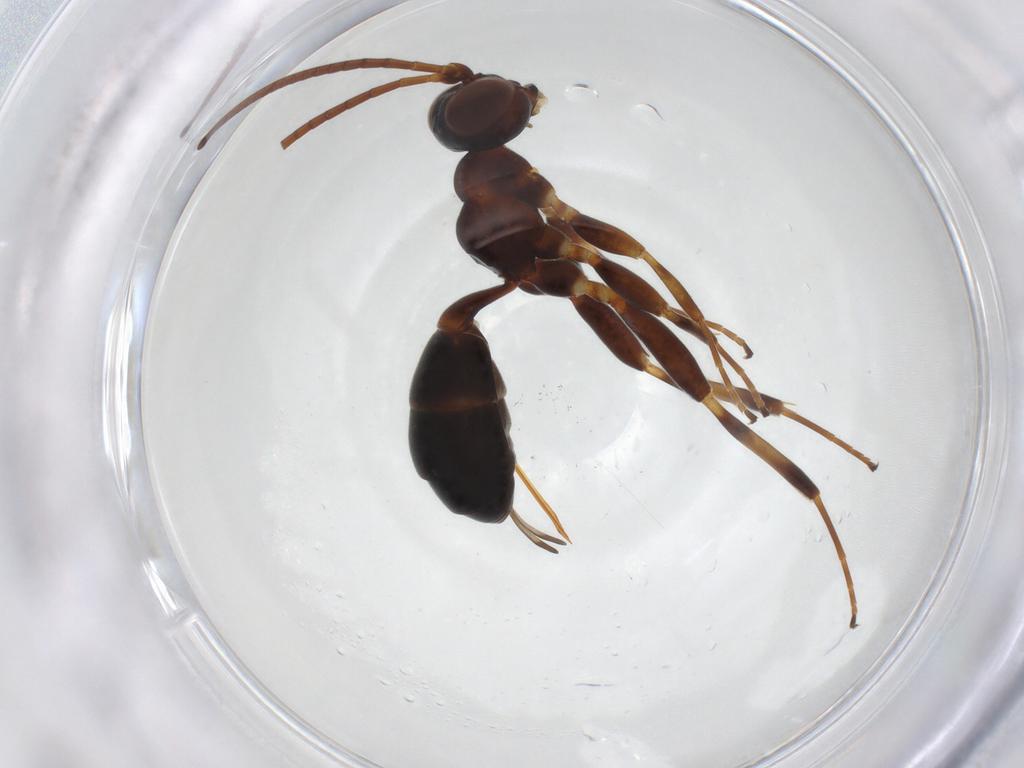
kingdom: Animalia
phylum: Arthropoda
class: Insecta
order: Hymenoptera
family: Ichneumonidae
